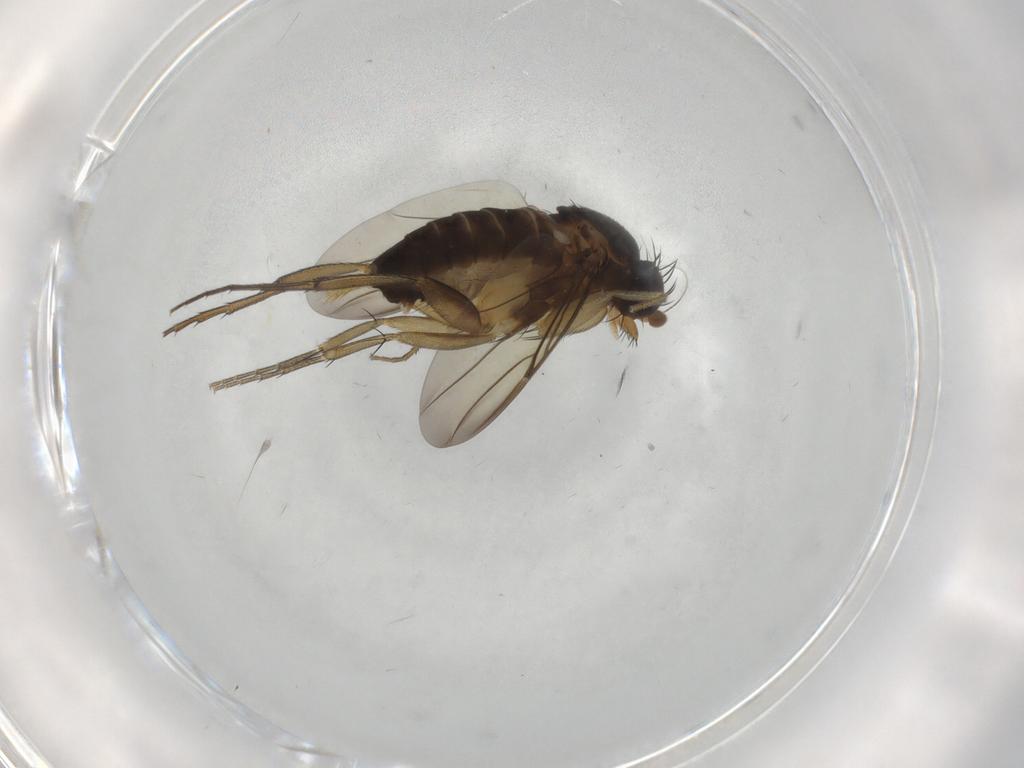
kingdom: Animalia
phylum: Arthropoda
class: Insecta
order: Diptera
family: Phoridae
